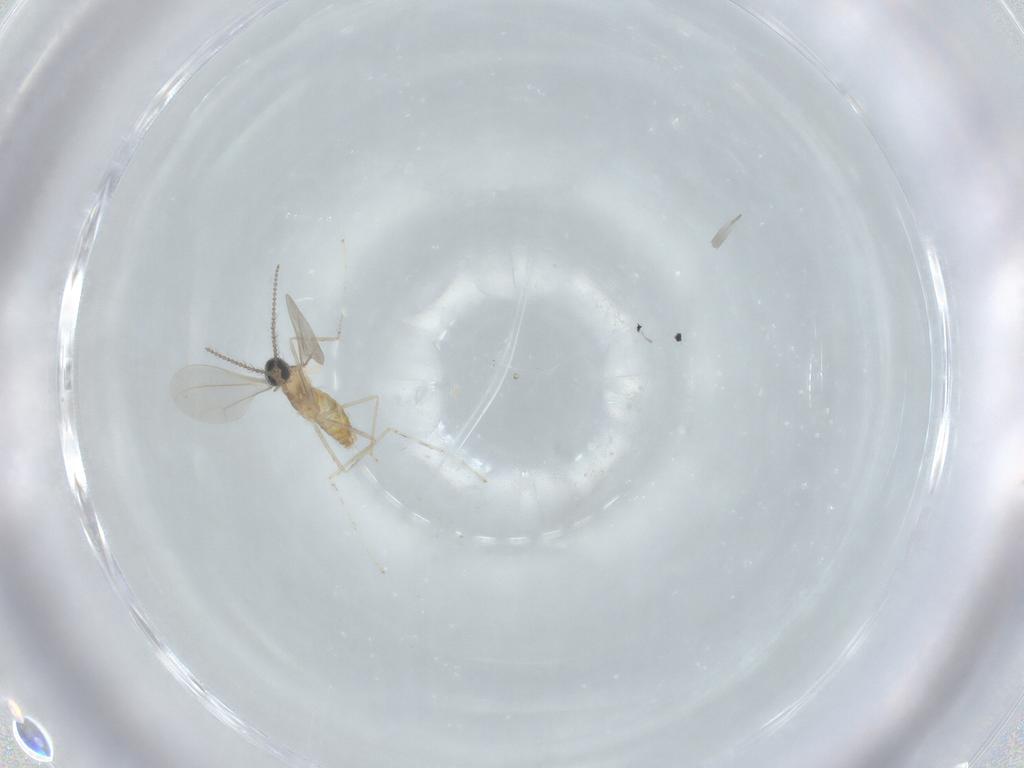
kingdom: Animalia
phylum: Arthropoda
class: Insecta
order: Diptera
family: Chironomidae
